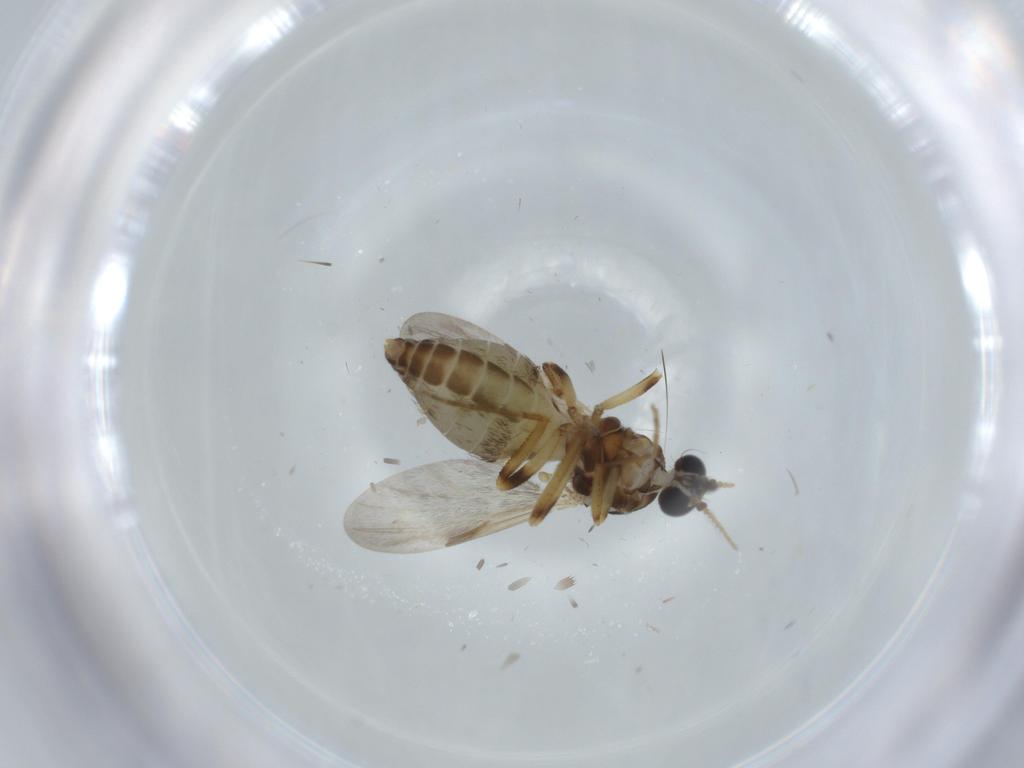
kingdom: Animalia
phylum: Arthropoda
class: Insecta
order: Diptera
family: Ceratopogonidae
